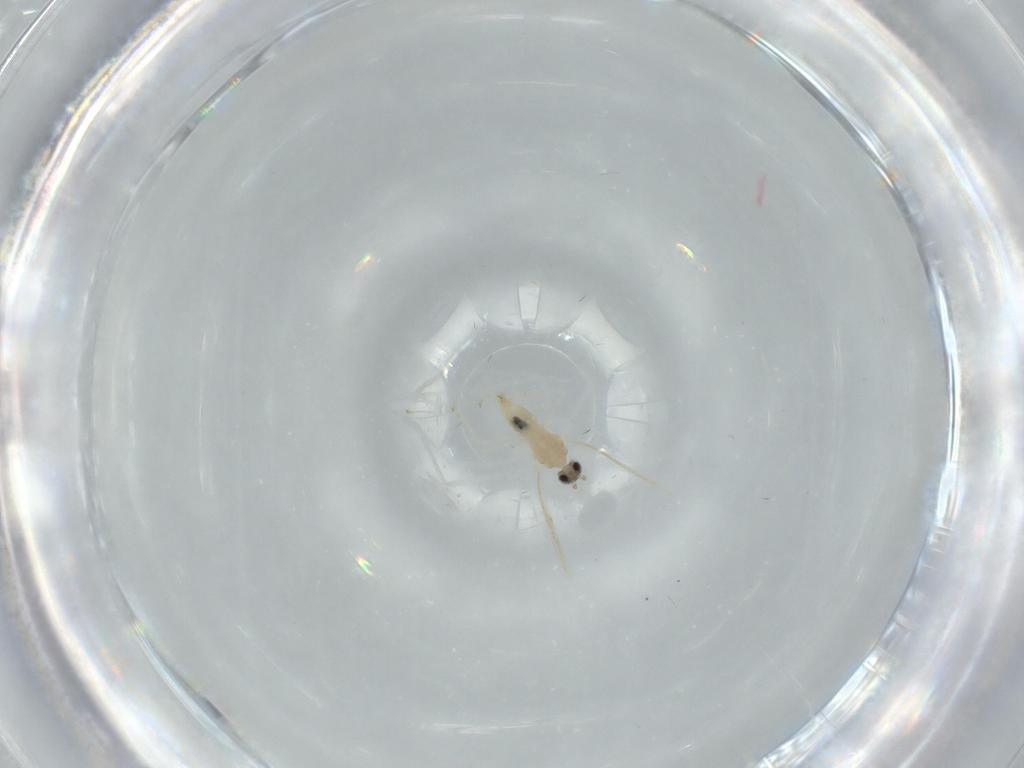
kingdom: Animalia
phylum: Arthropoda
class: Insecta
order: Diptera
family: Cecidomyiidae
